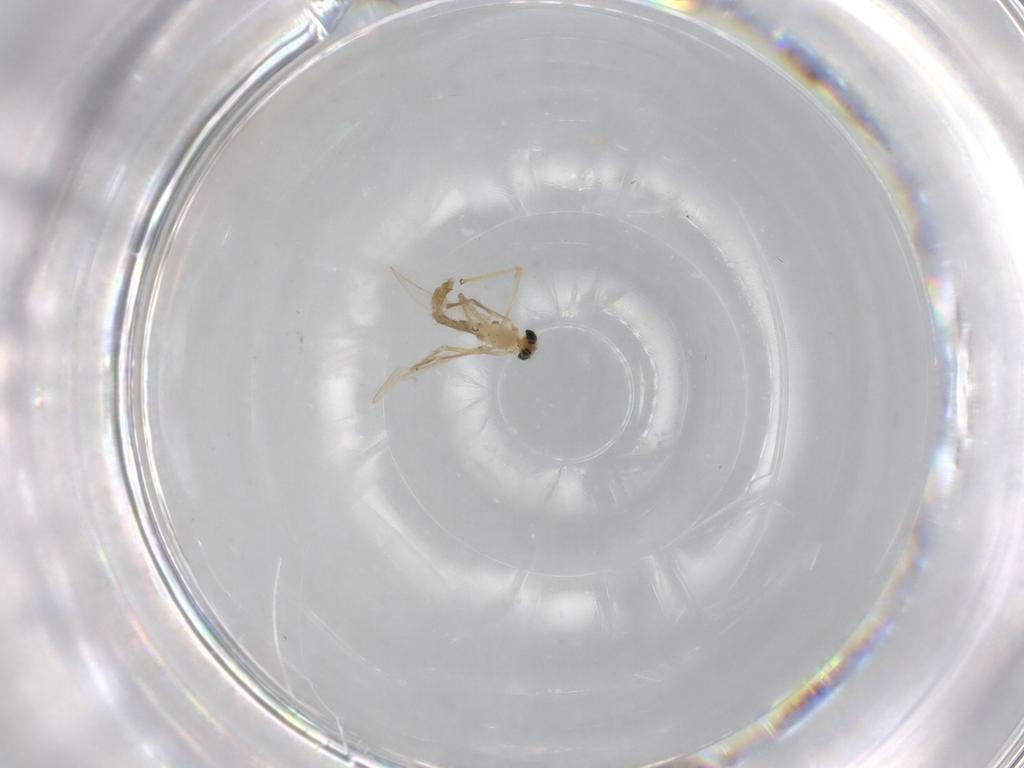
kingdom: Animalia
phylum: Arthropoda
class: Insecta
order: Diptera
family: Chironomidae
